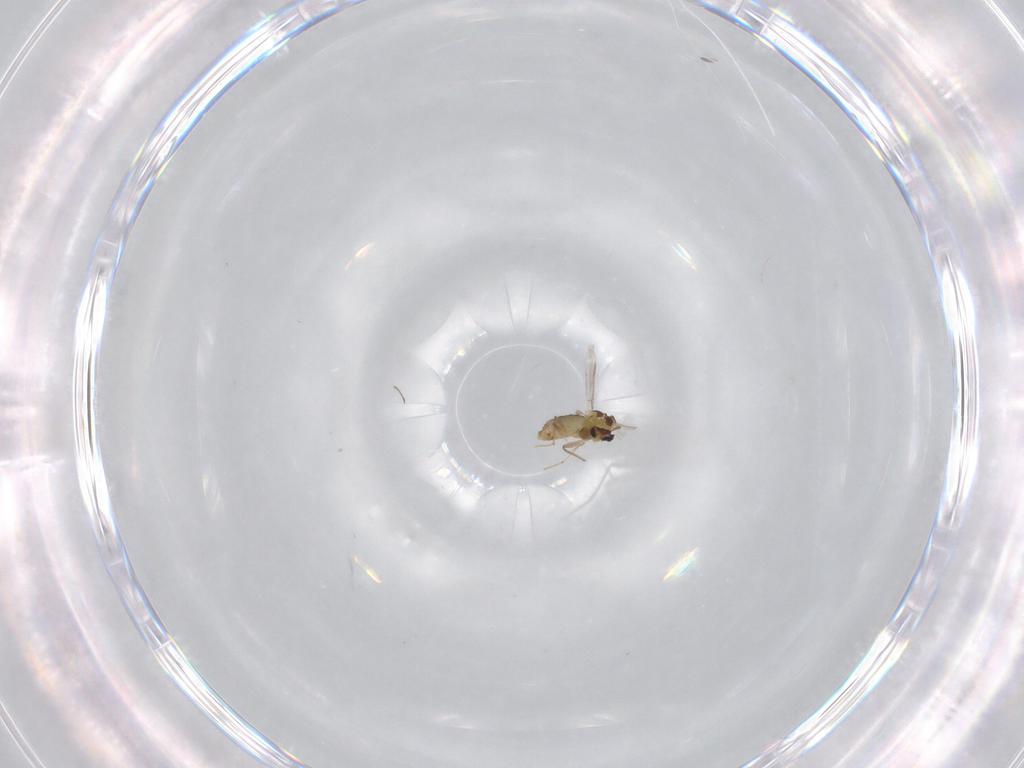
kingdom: Animalia
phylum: Arthropoda
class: Insecta
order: Diptera
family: Chironomidae
